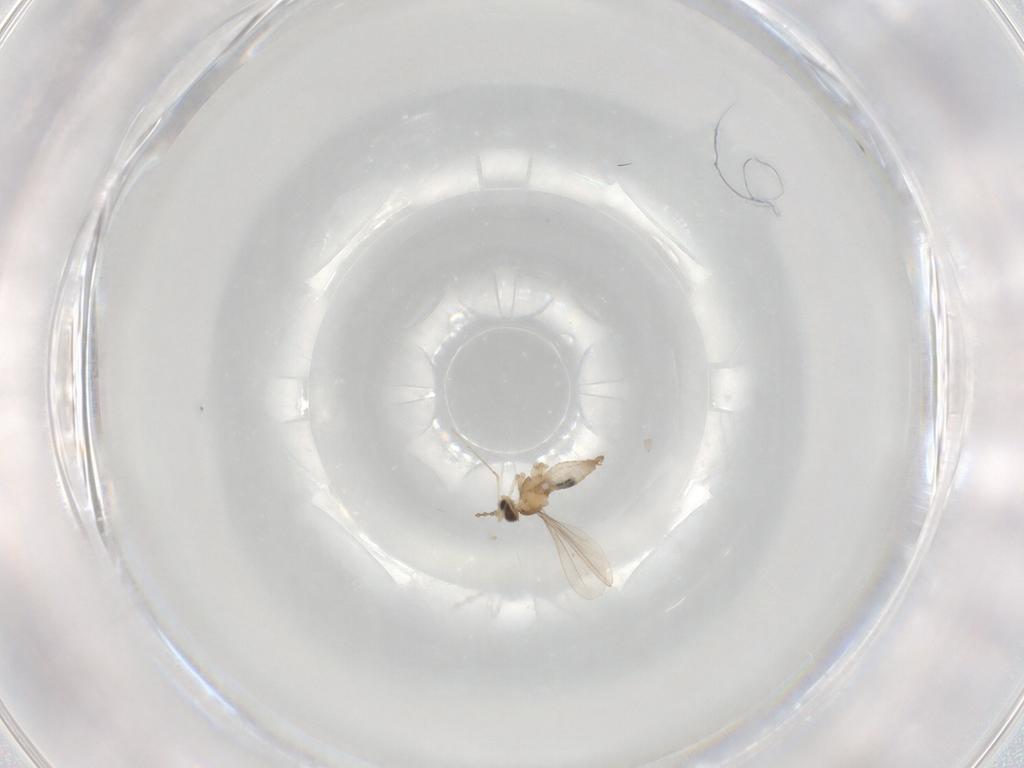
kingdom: Animalia
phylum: Arthropoda
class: Insecta
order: Diptera
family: Cecidomyiidae
